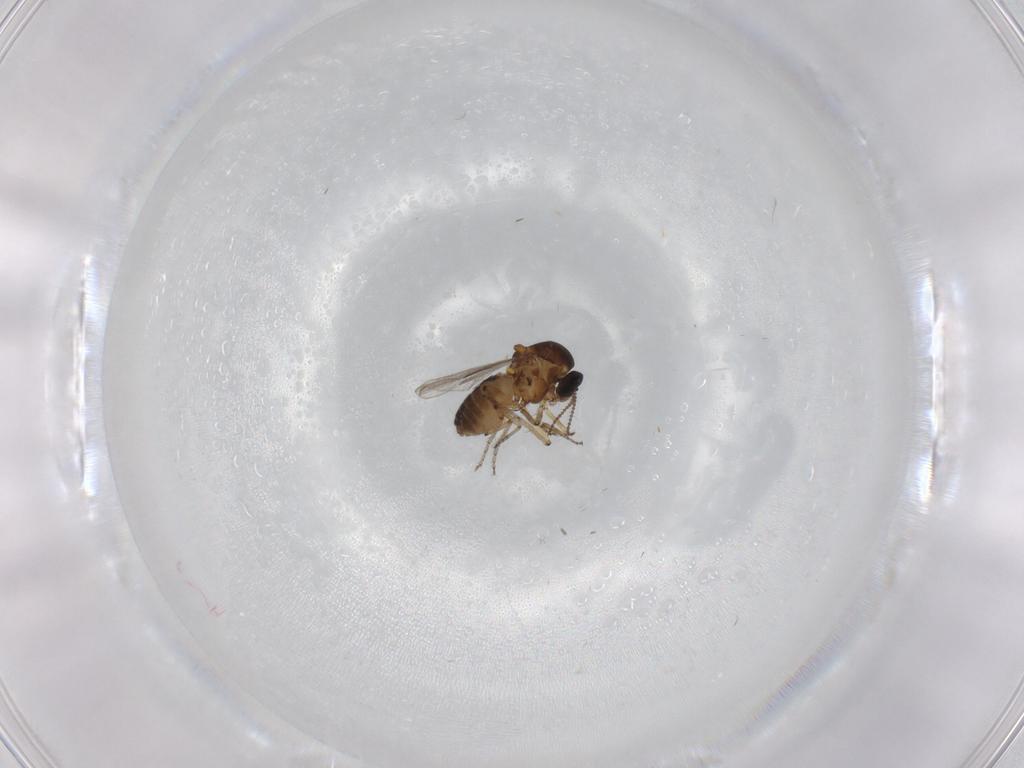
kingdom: Animalia
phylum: Arthropoda
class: Insecta
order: Diptera
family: Ceratopogonidae
